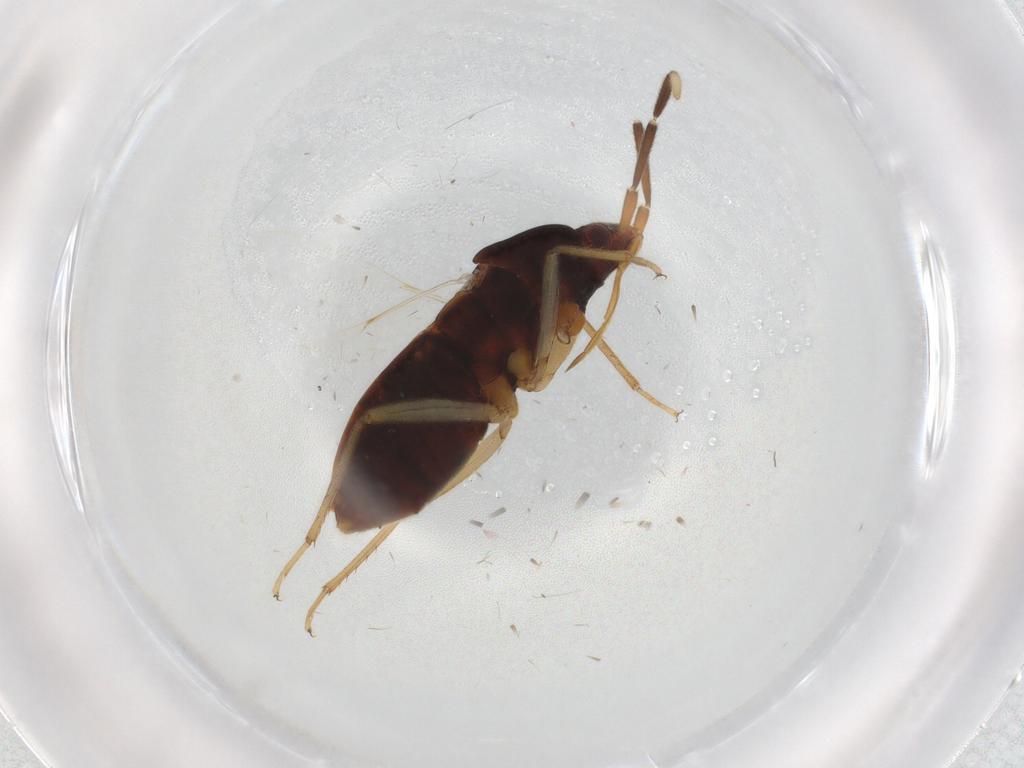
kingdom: Animalia
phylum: Arthropoda
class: Insecta
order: Hemiptera
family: Rhyparochromidae
